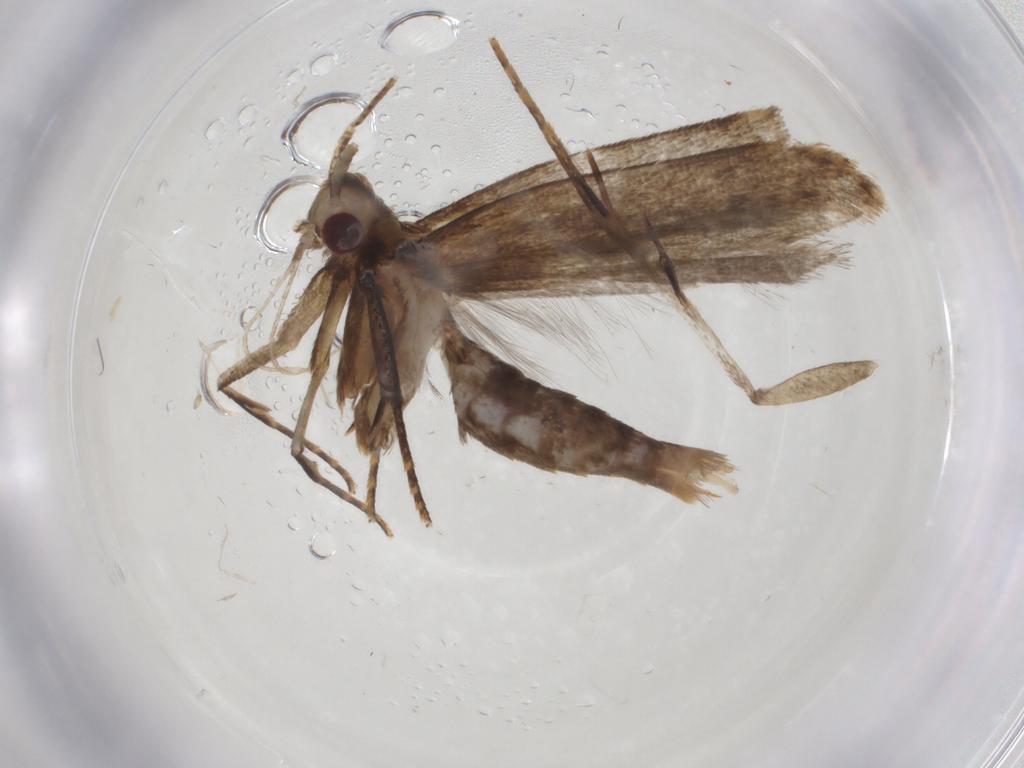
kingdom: Animalia
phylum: Arthropoda
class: Insecta
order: Lepidoptera
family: Gelechiidae
